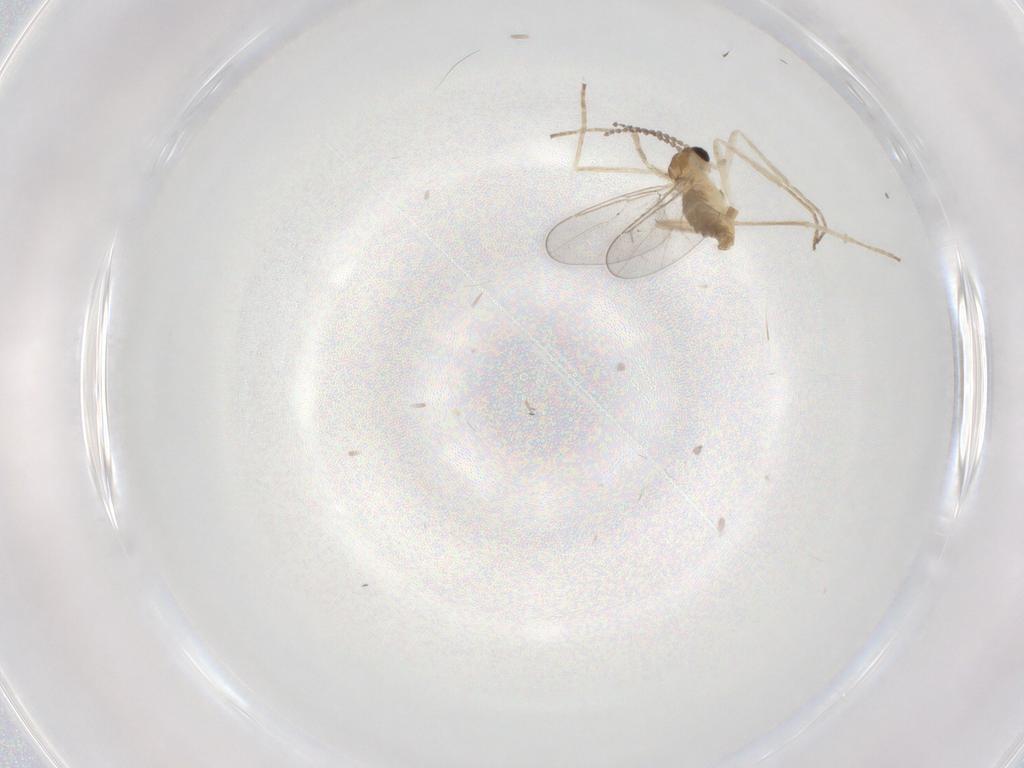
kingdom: Animalia
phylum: Arthropoda
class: Insecta
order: Diptera
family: Cecidomyiidae
